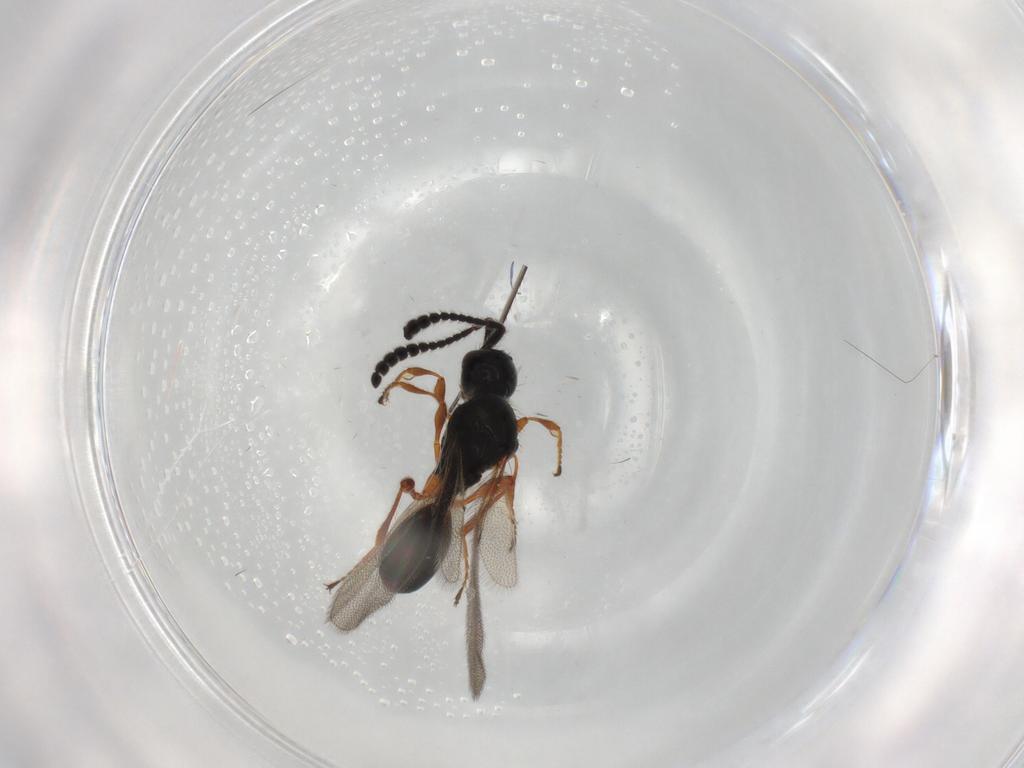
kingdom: Animalia
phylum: Arthropoda
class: Insecta
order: Hymenoptera
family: Diapriidae
